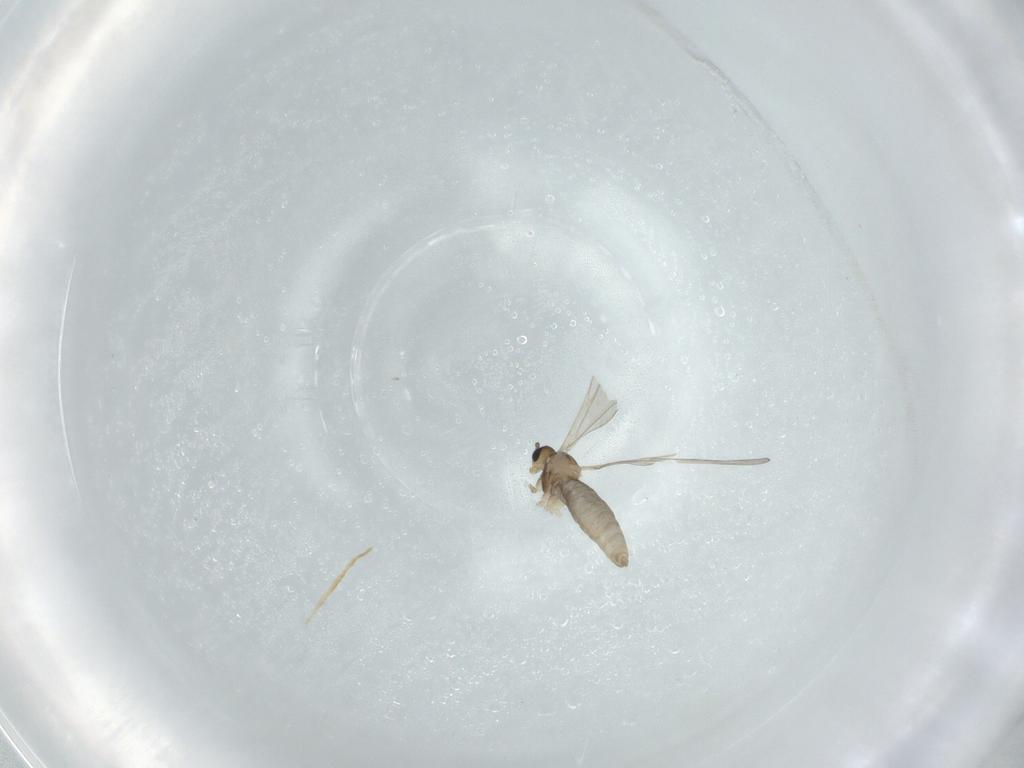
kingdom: Animalia
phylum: Arthropoda
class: Insecta
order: Diptera
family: Cecidomyiidae
